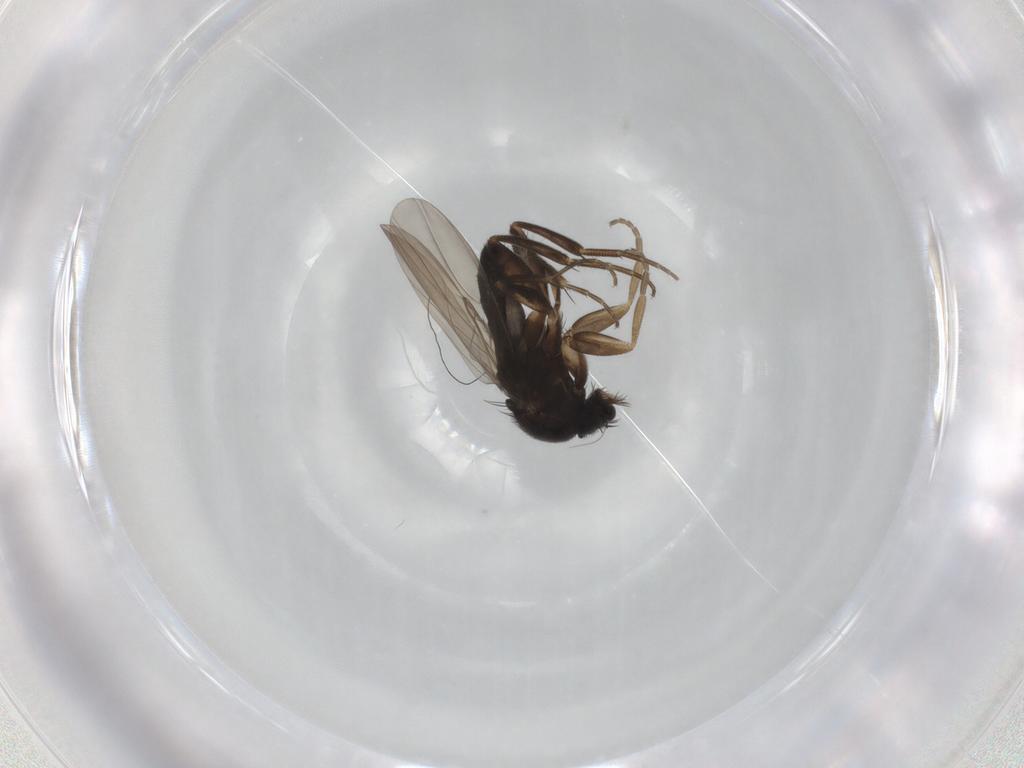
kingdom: Animalia
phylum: Arthropoda
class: Insecta
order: Diptera
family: Phoridae
